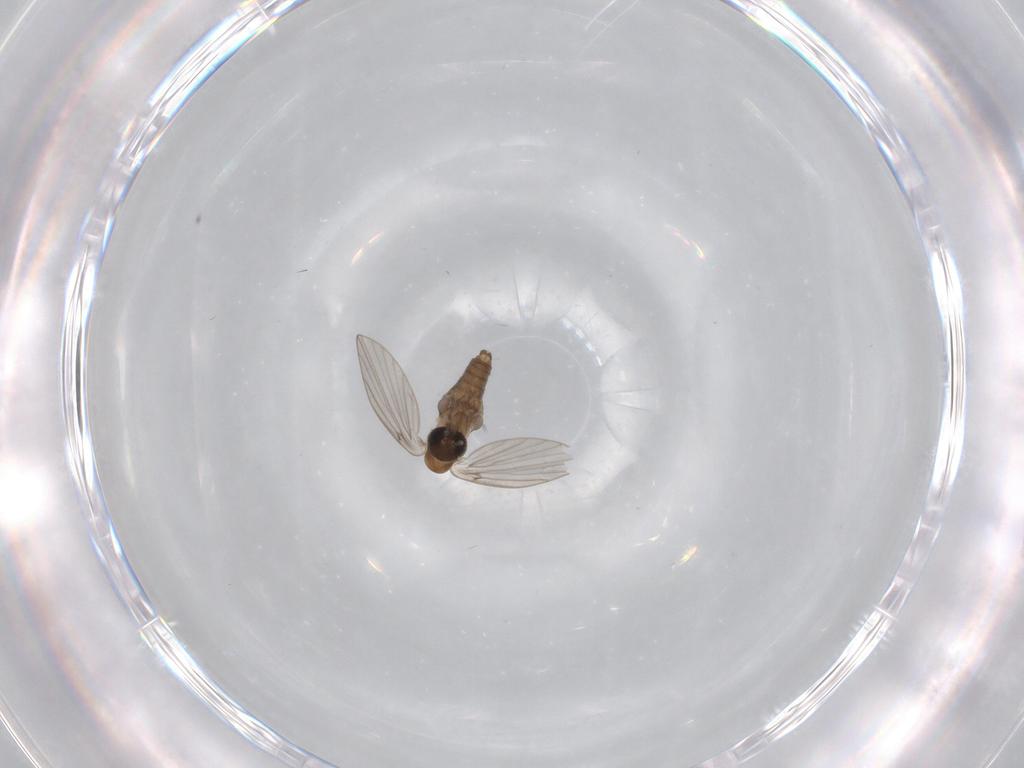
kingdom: Animalia
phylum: Arthropoda
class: Insecta
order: Diptera
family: Psychodidae
